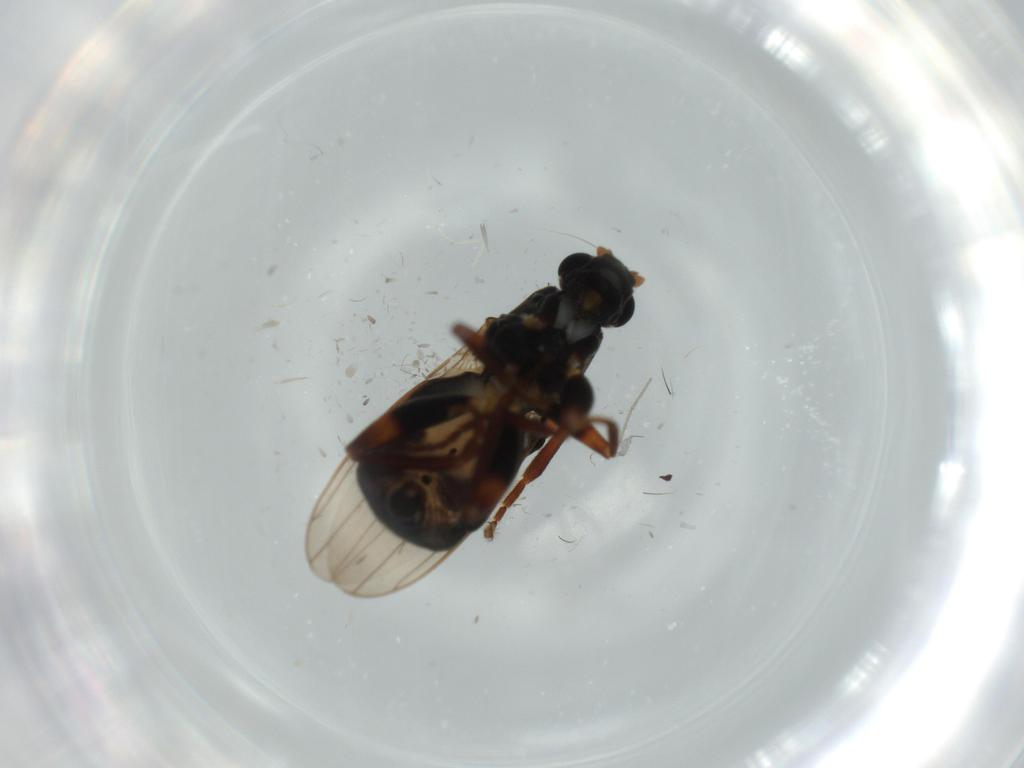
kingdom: Animalia
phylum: Arthropoda
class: Insecta
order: Diptera
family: Sphaeroceridae
